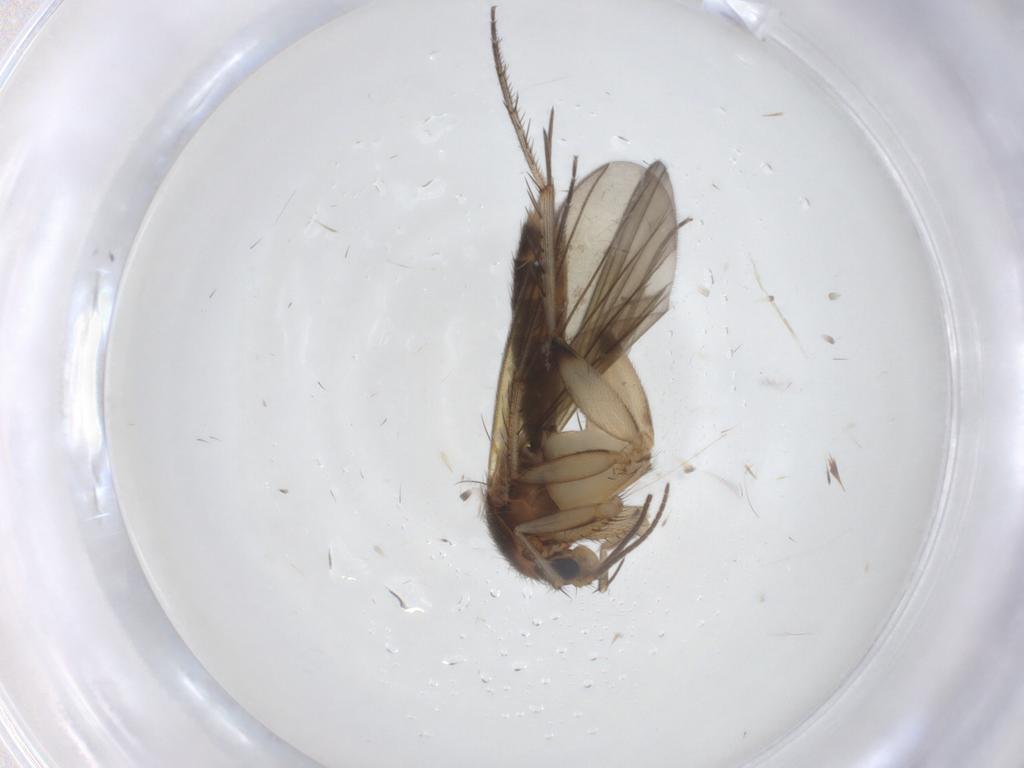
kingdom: Animalia
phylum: Arthropoda
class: Insecta
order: Diptera
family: Mycetophilidae
